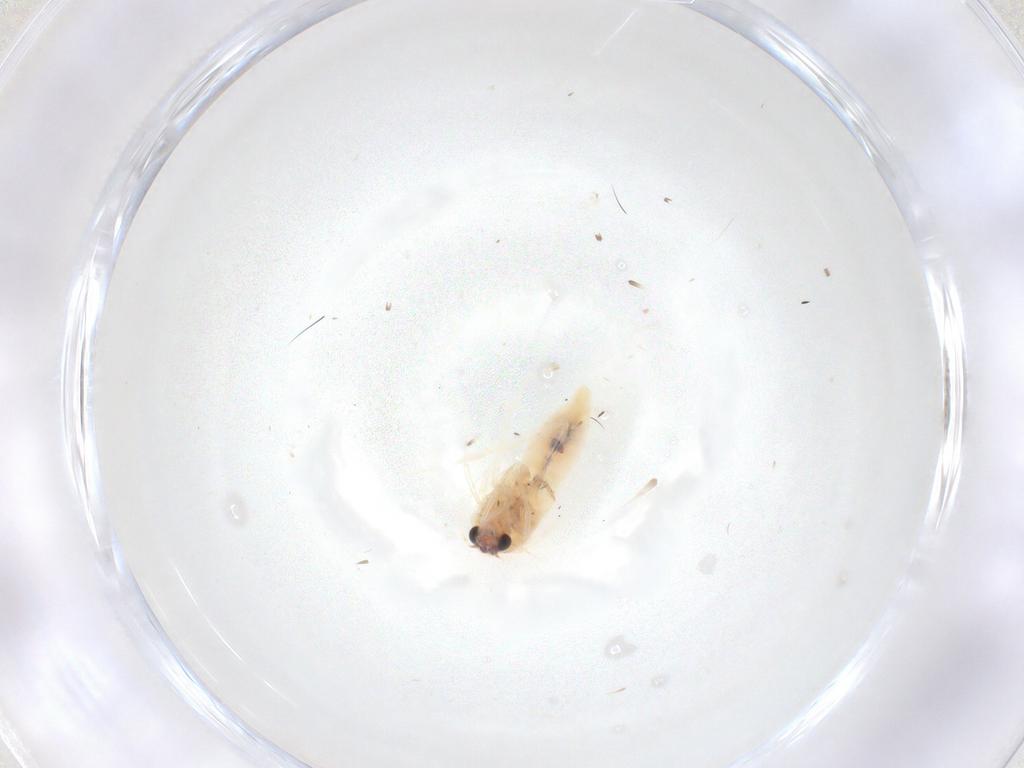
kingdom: Animalia
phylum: Arthropoda
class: Insecta
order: Lepidoptera
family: Nepticulidae
